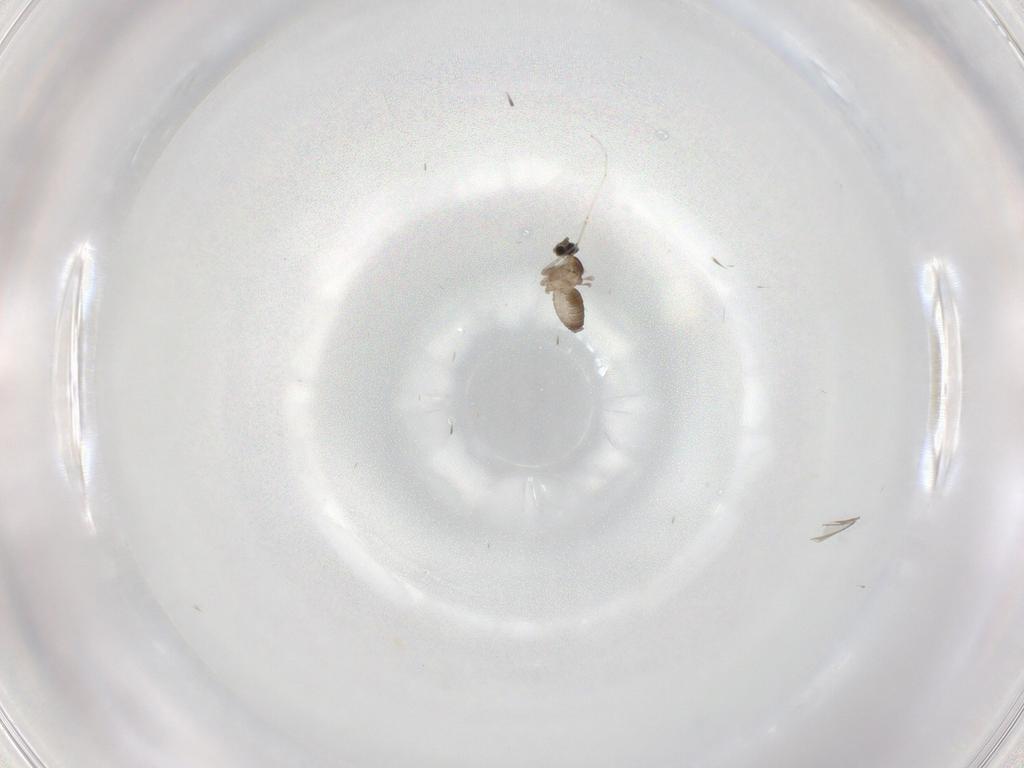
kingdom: Animalia
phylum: Arthropoda
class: Insecta
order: Diptera
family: Cecidomyiidae
